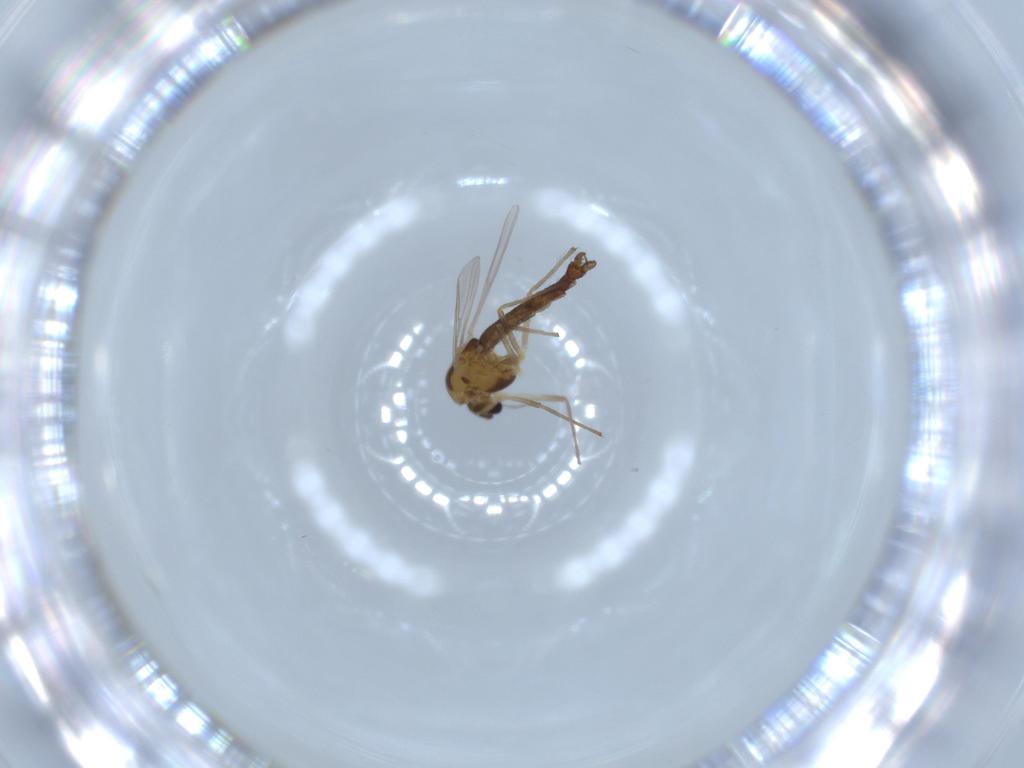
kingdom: Animalia
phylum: Arthropoda
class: Insecta
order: Diptera
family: Chironomidae
